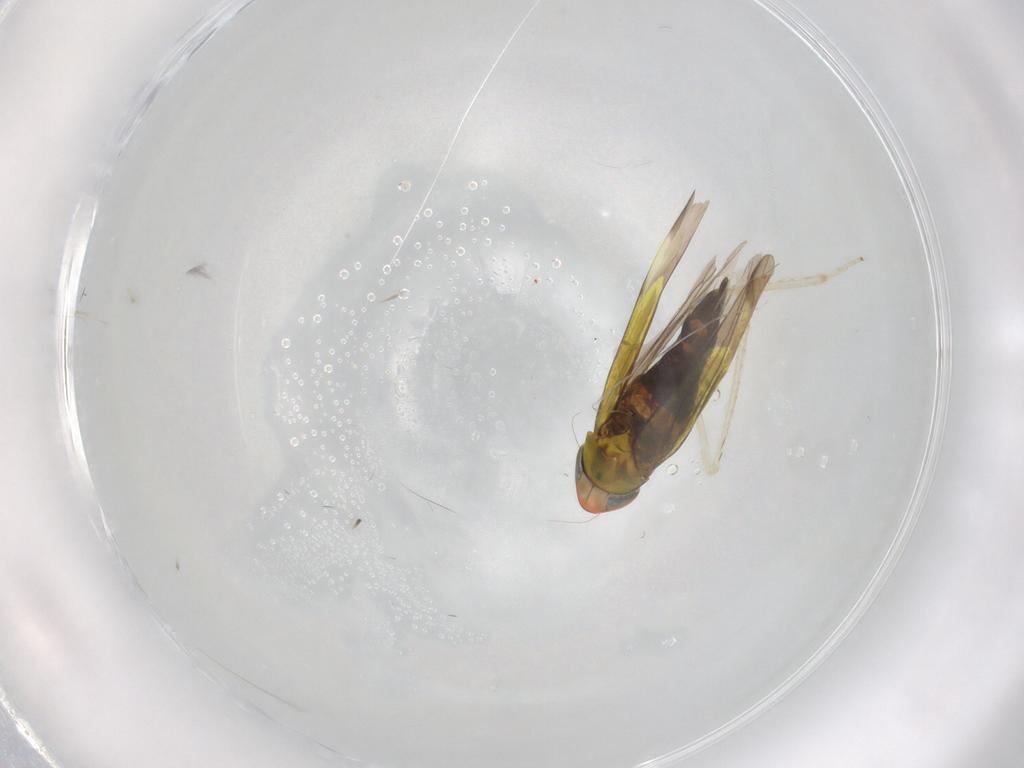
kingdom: Animalia
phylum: Arthropoda
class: Insecta
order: Hemiptera
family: Cicadellidae
